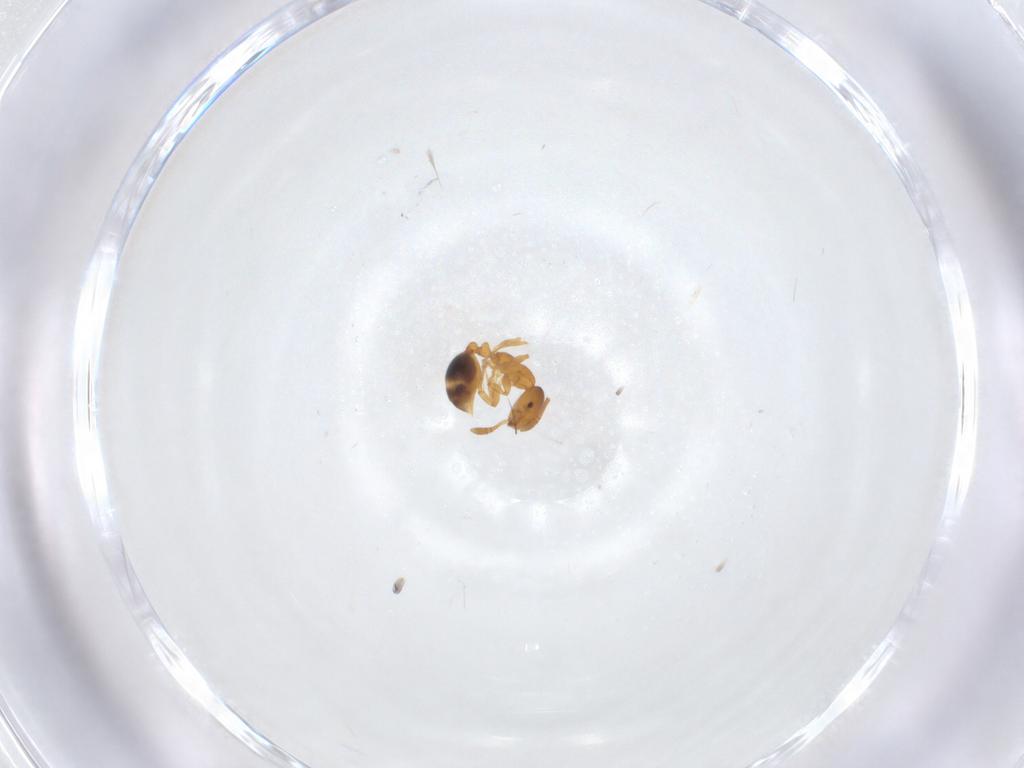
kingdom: Animalia
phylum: Arthropoda
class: Insecta
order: Hymenoptera
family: Formicidae
